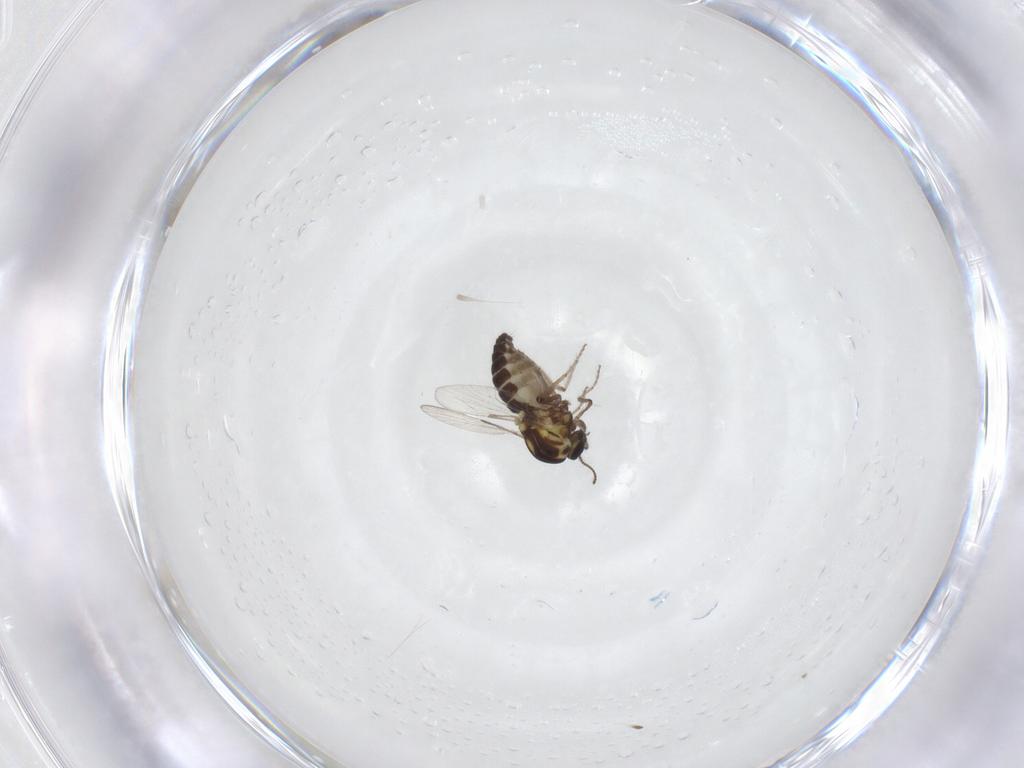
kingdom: Animalia
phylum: Arthropoda
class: Insecta
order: Diptera
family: Ceratopogonidae
